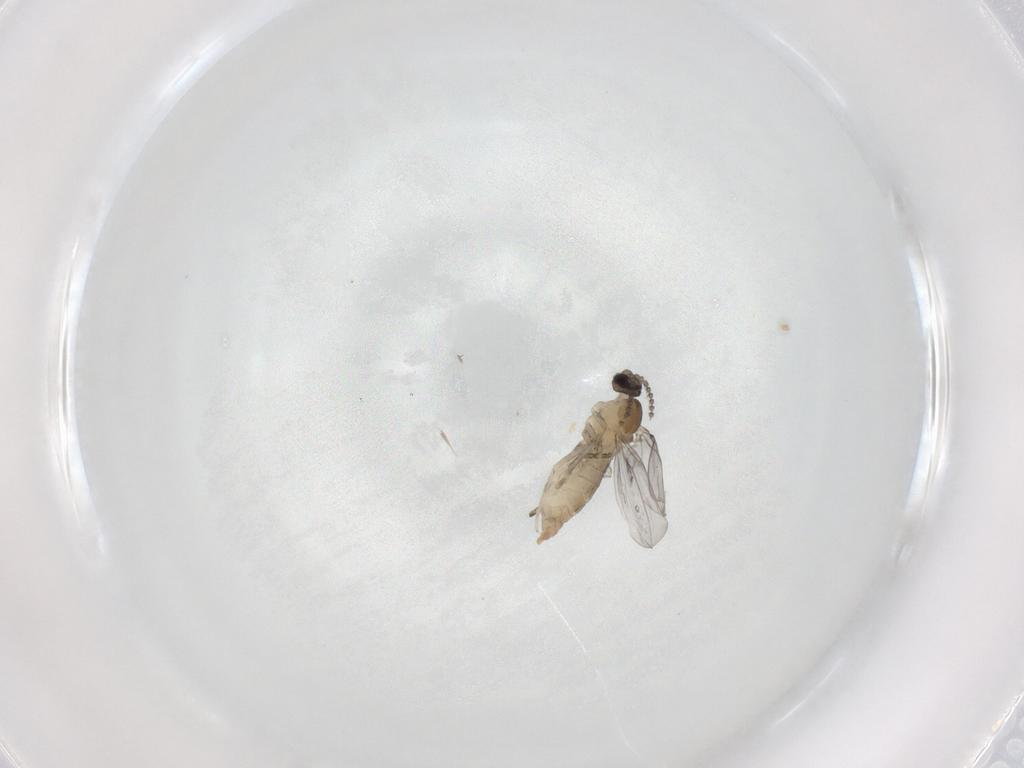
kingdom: Animalia
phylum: Arthropoda
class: Insecta
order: Diptera
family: Cecidomyiidae
